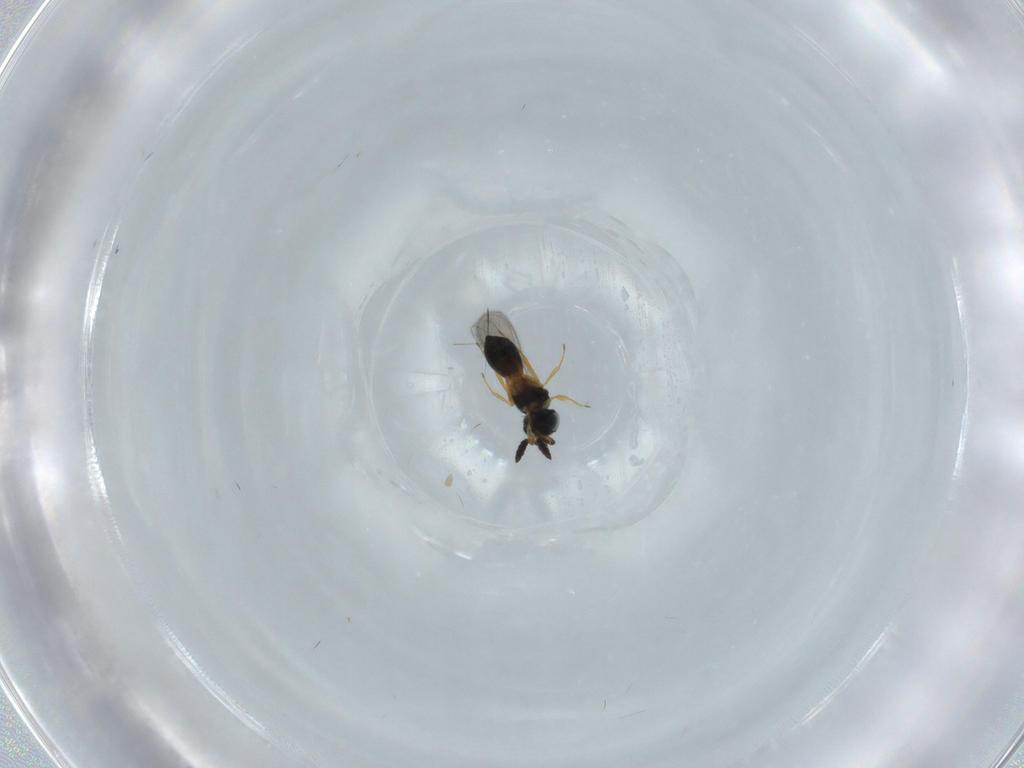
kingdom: Animalia
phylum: Arthropoda
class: Insecta
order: Hymenoptera
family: Scelionidae
